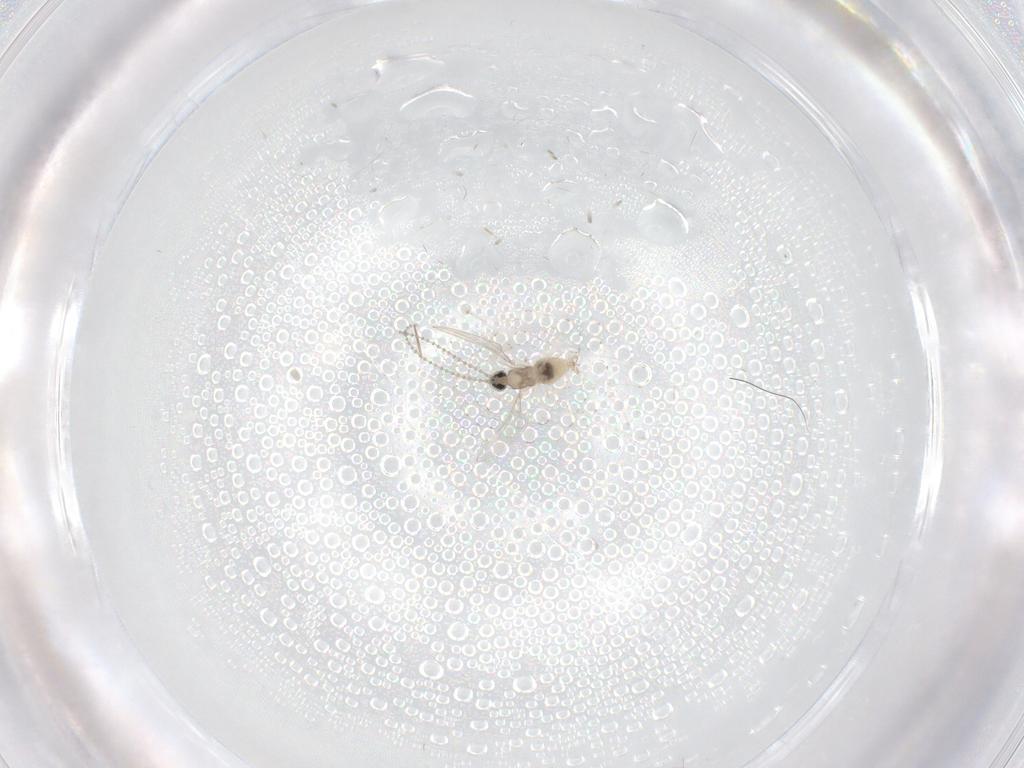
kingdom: Animalia
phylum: Arthropoda
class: Insecta
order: Diptera
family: Cecidomyiidae
